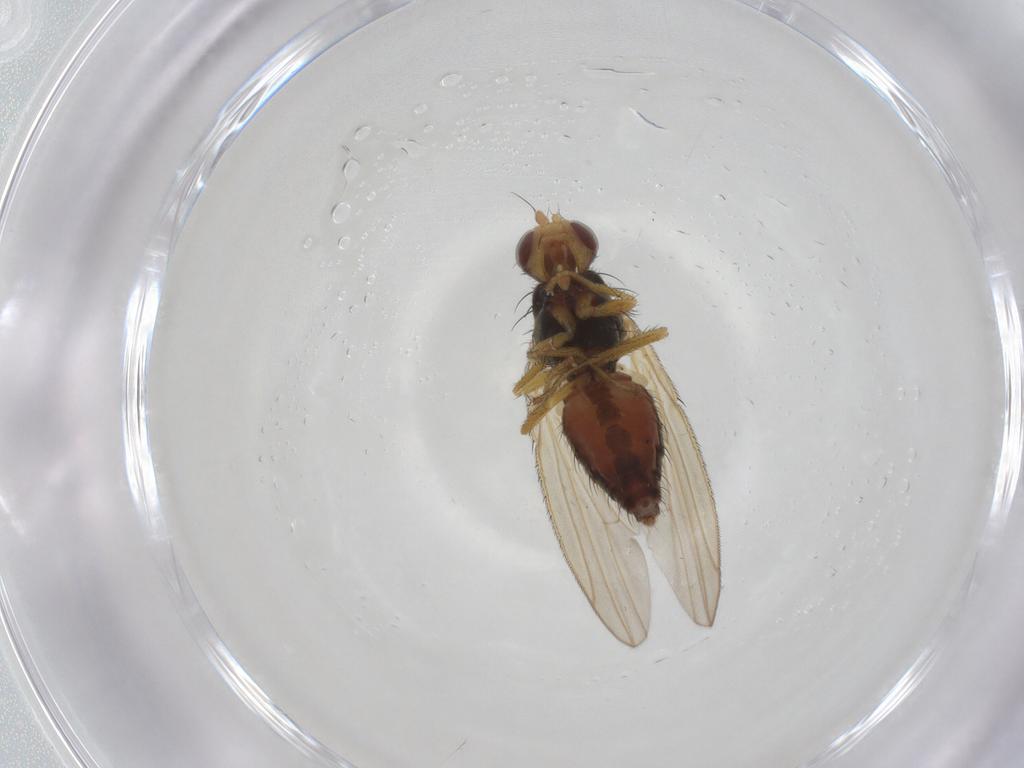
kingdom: Animalia
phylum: Arthropoda
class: Insecta
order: Diptera
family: Heleomyzidae
